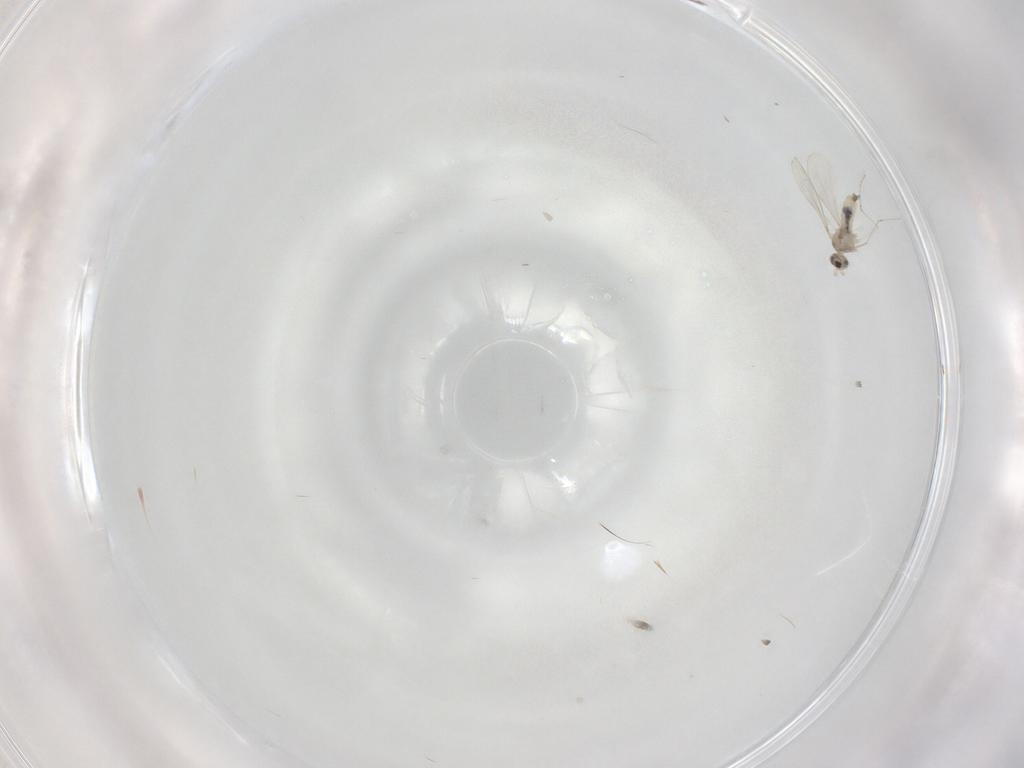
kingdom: Animalia
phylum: Arthropoda
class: Insecta
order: Diptera
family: Cecidomyiidae
